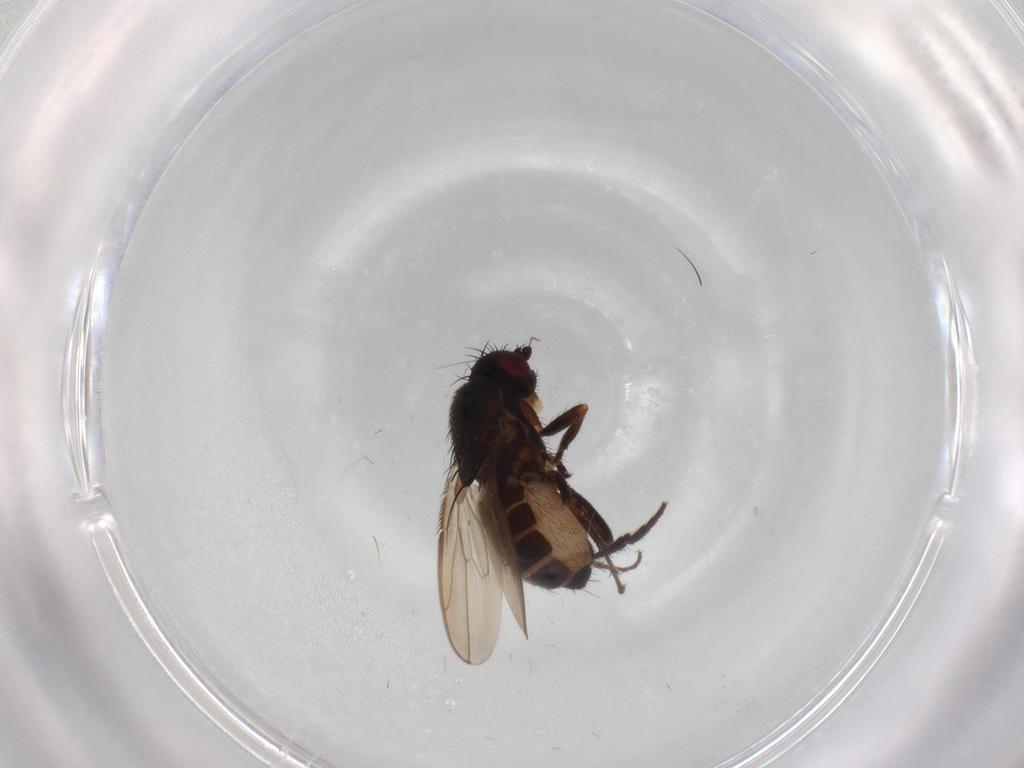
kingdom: Animalia
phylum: Arthropoda
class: Insecta
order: Diptera
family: Sphaeroceridae
